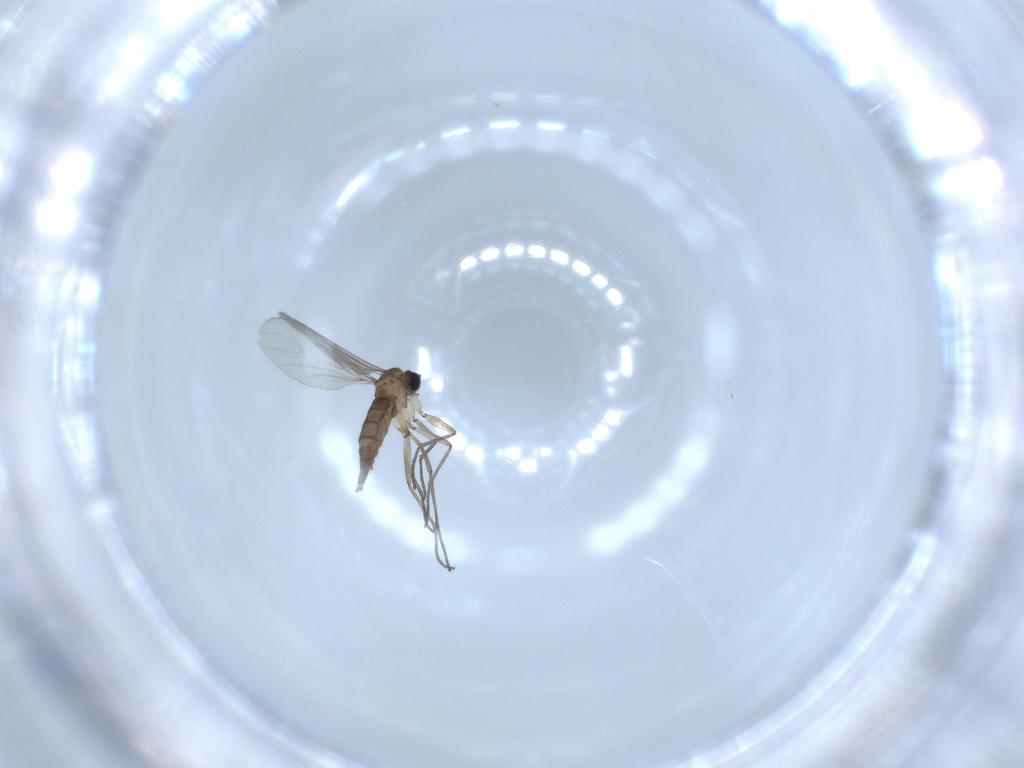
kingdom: Animalia
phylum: Arthropoda
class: Insecta
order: Diptera
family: Sciaridae
